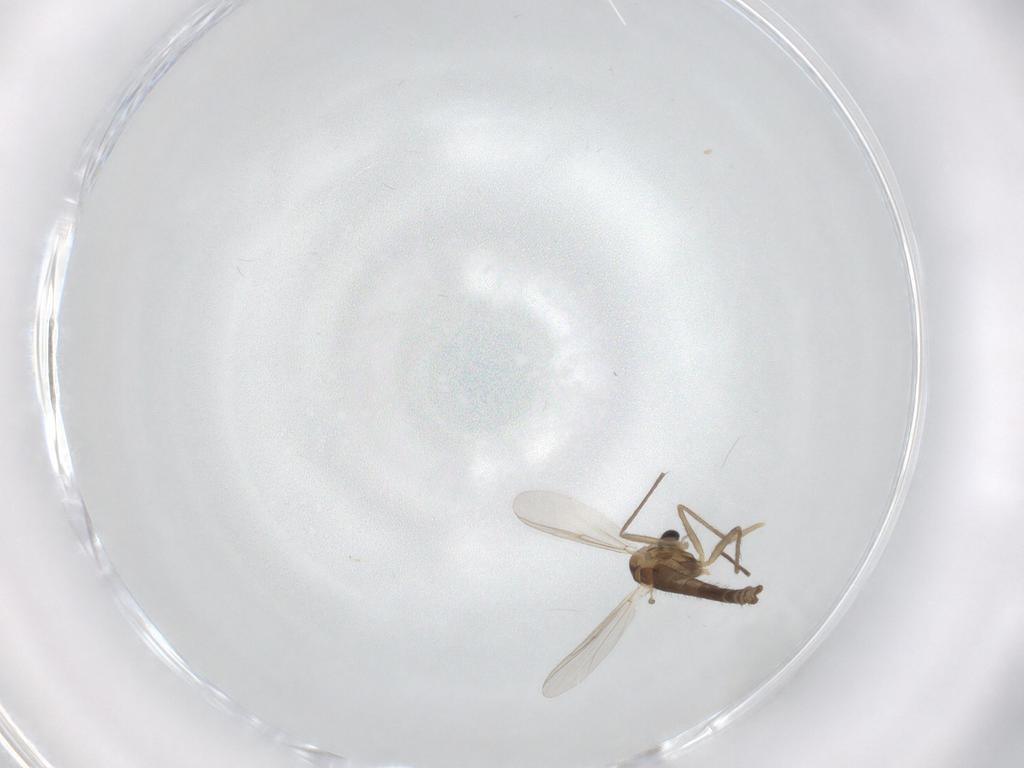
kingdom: Animalia
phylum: Arthropoda
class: Insecta
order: Diptera
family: Chironomidae
